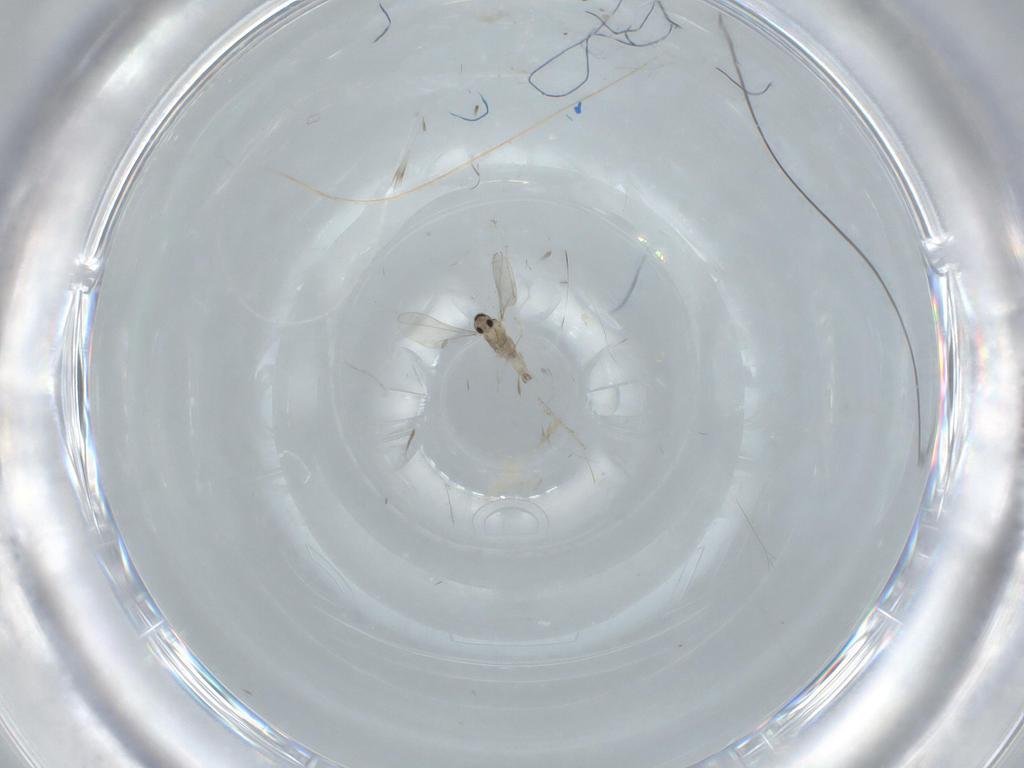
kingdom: Animalia
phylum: Arthropoda
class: Insecta
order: Diptera
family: Cecidomyiidae
